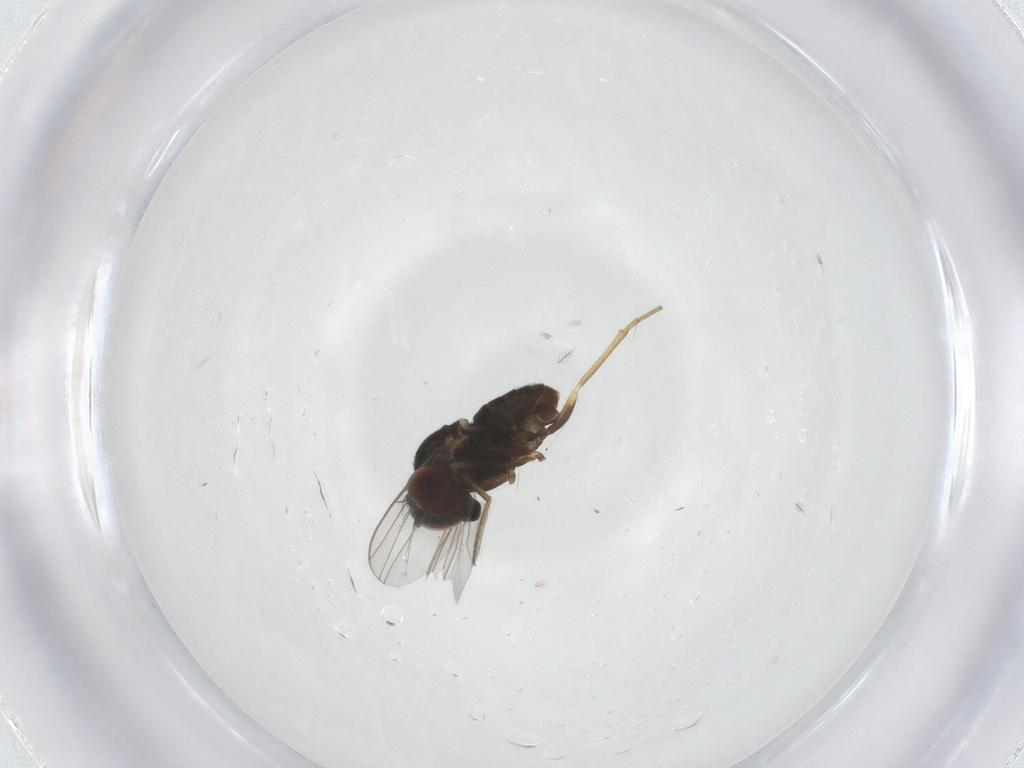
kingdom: Animalia
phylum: Arthropoda
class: Insecta
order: Diptera
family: Dolichopodidae
